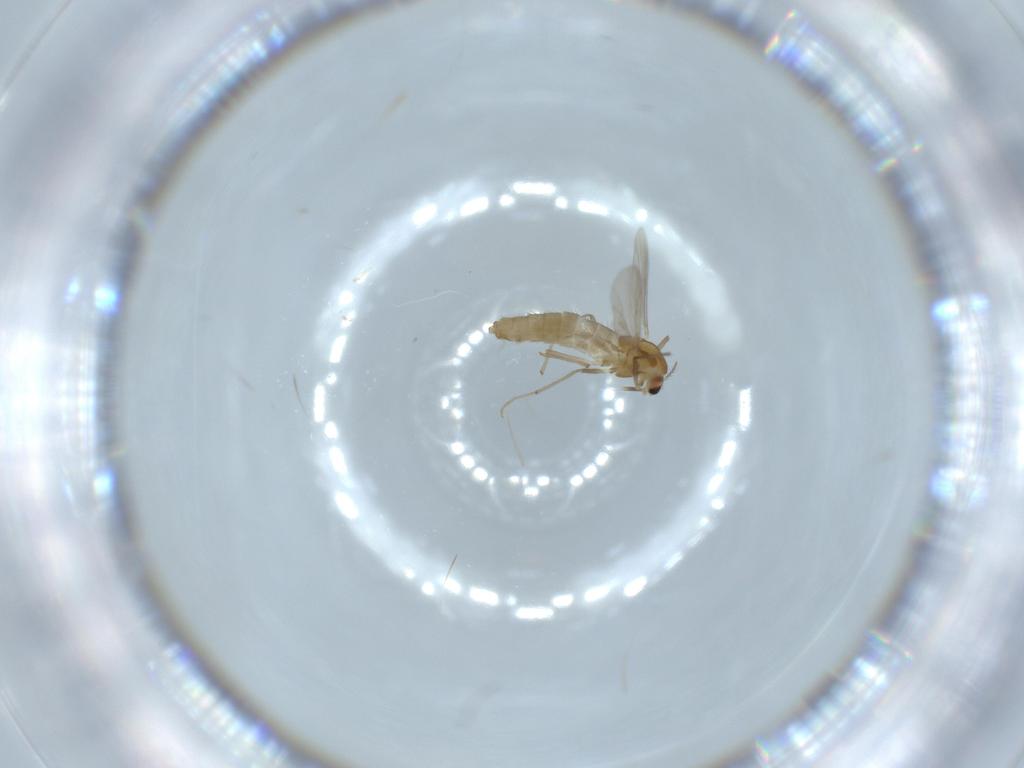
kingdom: Animalia
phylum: Arthropoda
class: Insecta
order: Diptera
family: Chironomidae
